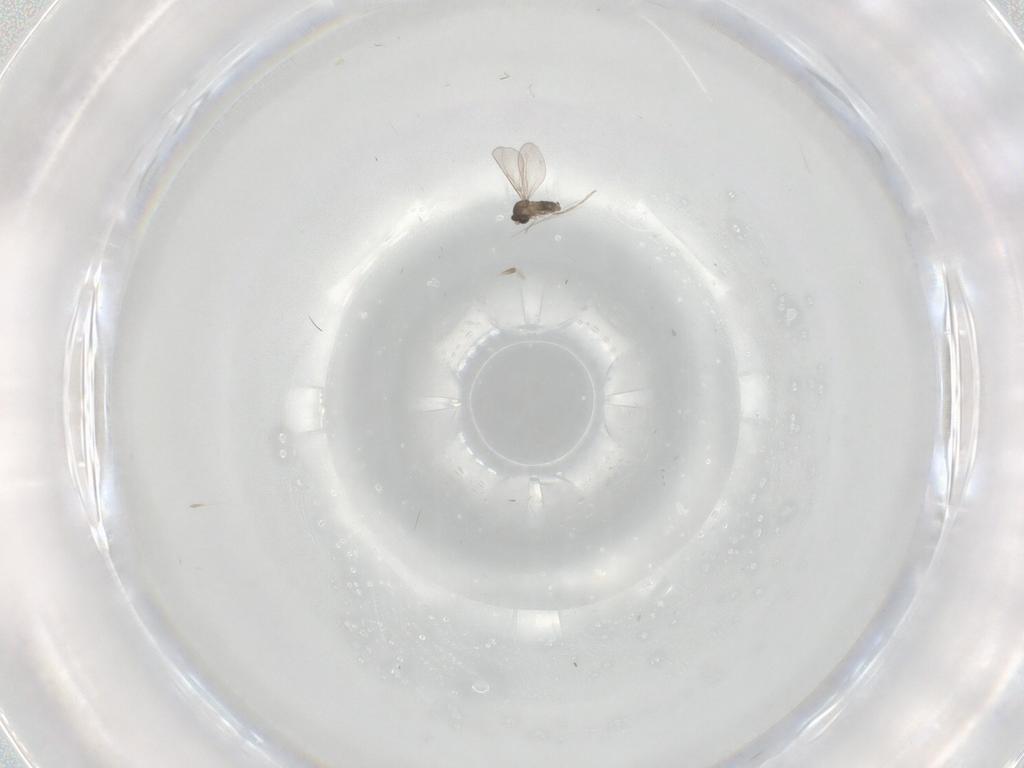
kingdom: Animalia
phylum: Arthropoda
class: Insecta
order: Diptera
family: Cecidomyiidae
